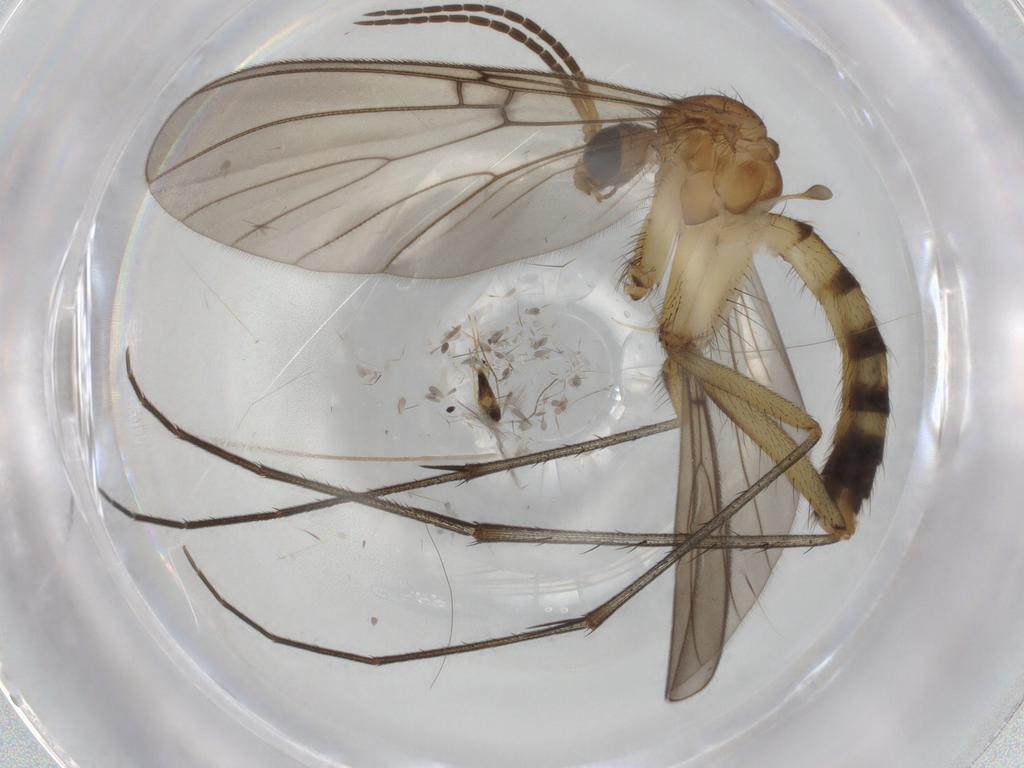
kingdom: Animalia
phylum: Arthropoda
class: Insecta
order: Diptera
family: Mycetophilidae
